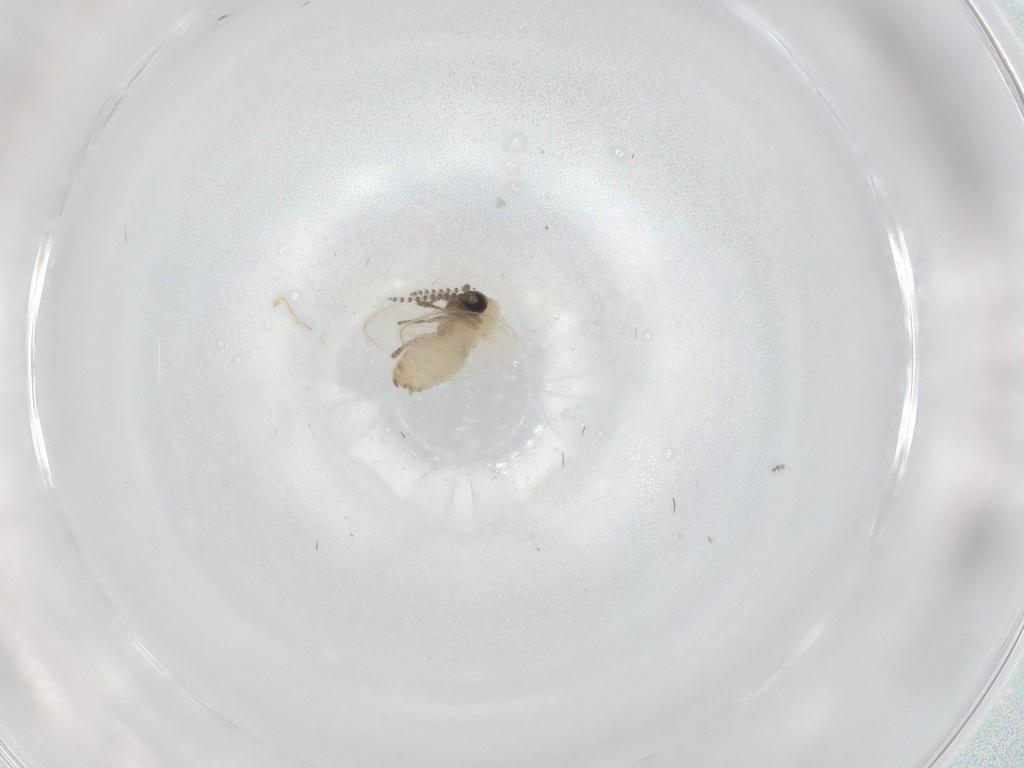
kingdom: Animalia
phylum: Arthropoda
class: Insecta
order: Diptera
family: Psychodidae
